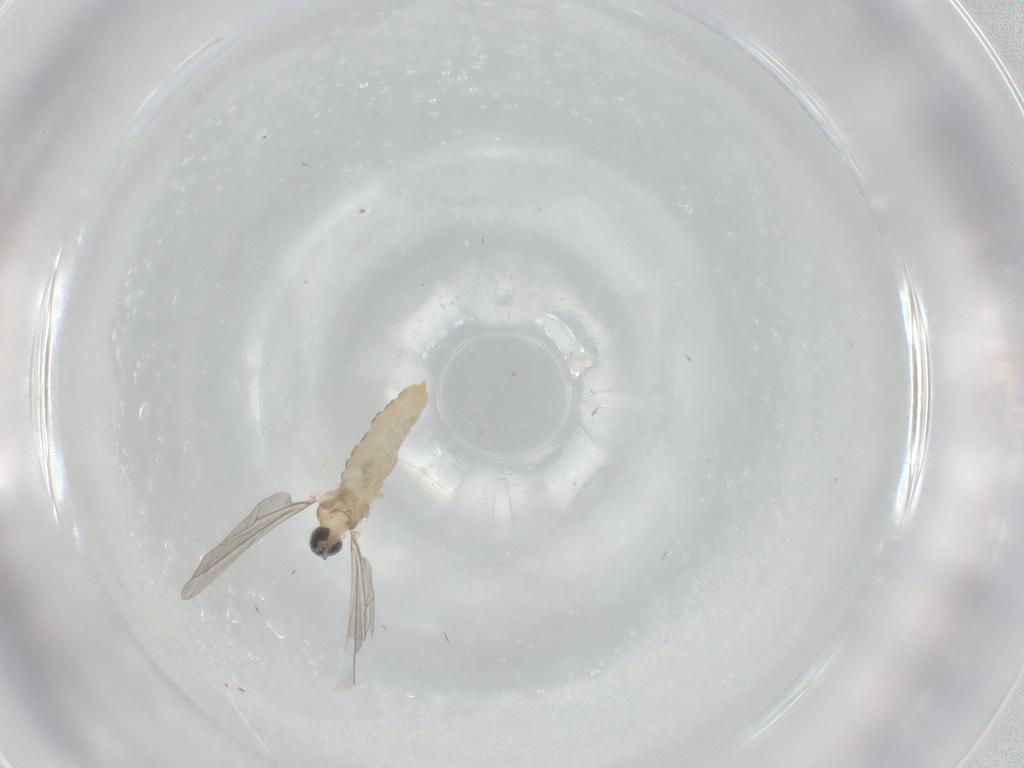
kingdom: Animalia
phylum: Arthropoda
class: Insecta
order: Diptera
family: Cecidomyiidae
